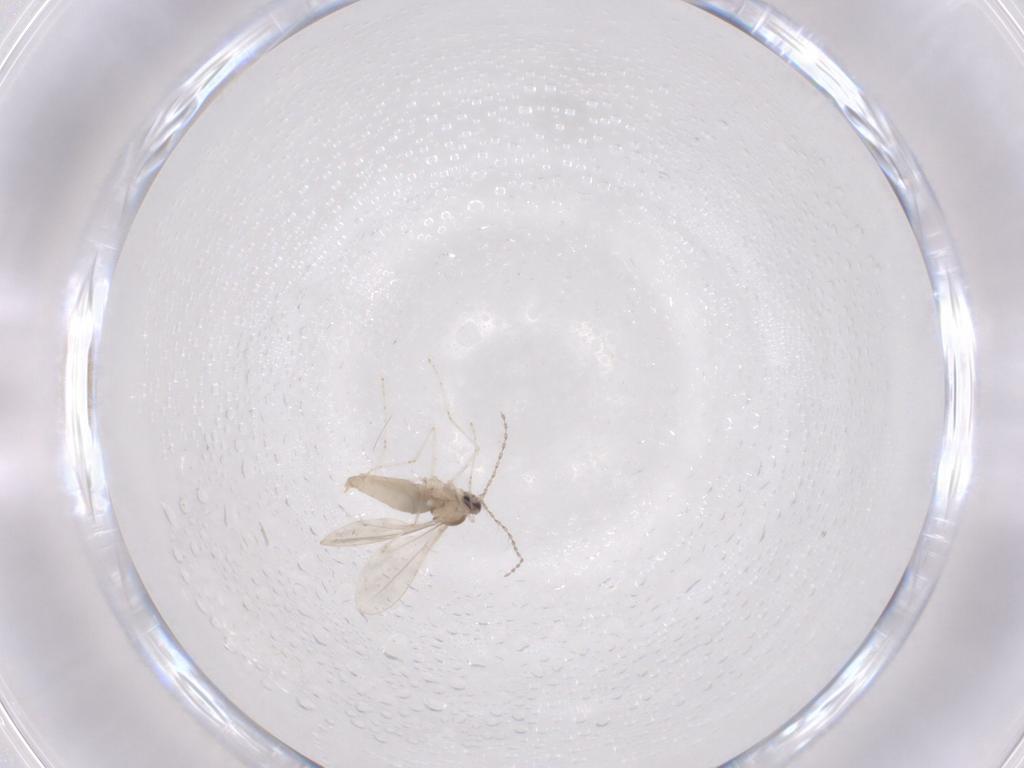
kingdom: Animalia
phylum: Arthropoda
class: Insecta
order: Diptera
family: Cecidomyiidae
